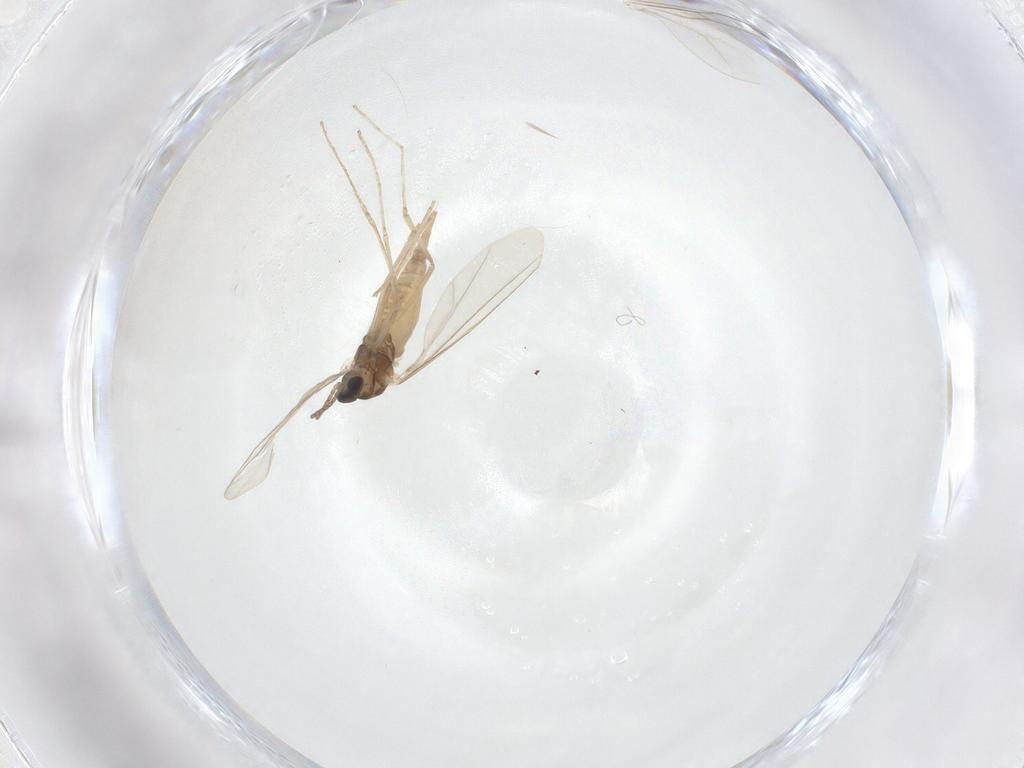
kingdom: Animalia
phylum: Arthropoda
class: Insecta
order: Diptera
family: Cecidomyiidae
